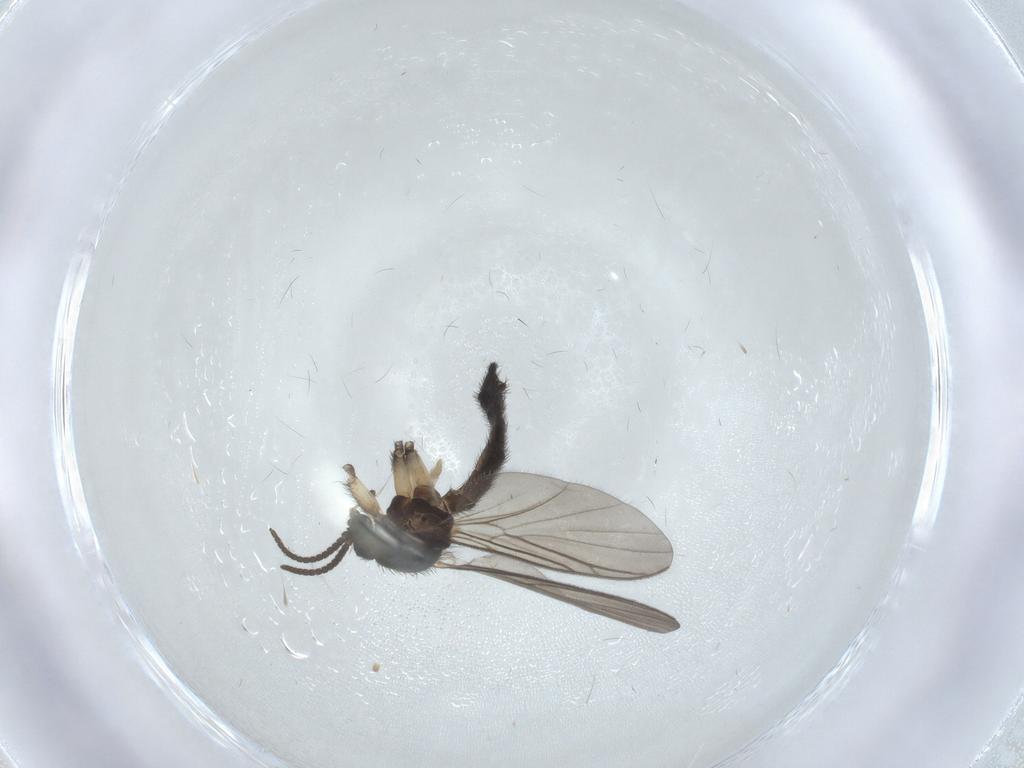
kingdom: Animalia
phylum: Arthropoda
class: Insecta
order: Diptera
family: Keroplatidae
